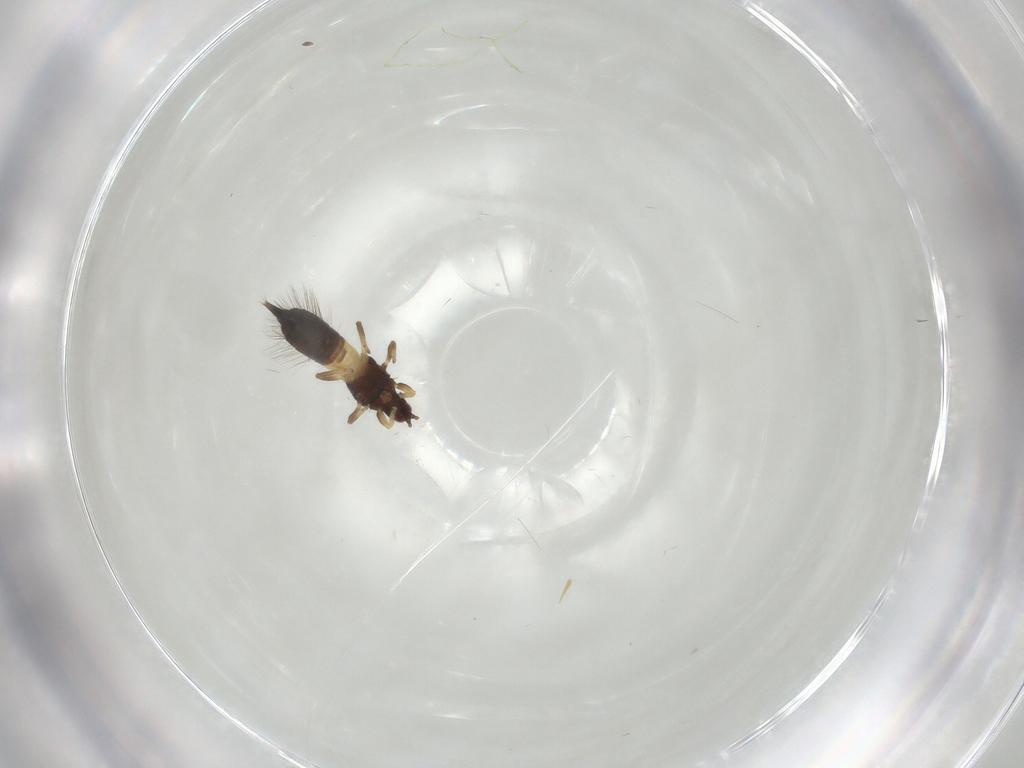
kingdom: Animalia
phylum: Arthropoda
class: Insecta
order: Thysanoptera
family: Phlaeothripidae
